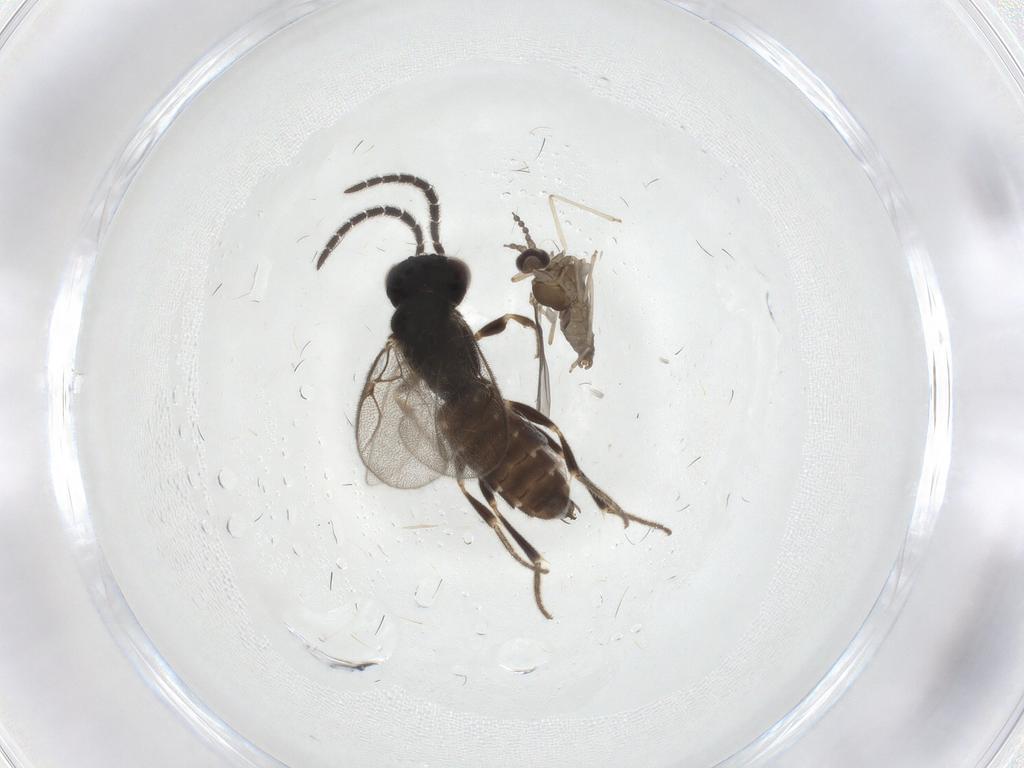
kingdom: Animalia
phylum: Arthropoda
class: Insecta
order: Hymenoptera
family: Dryinidae
